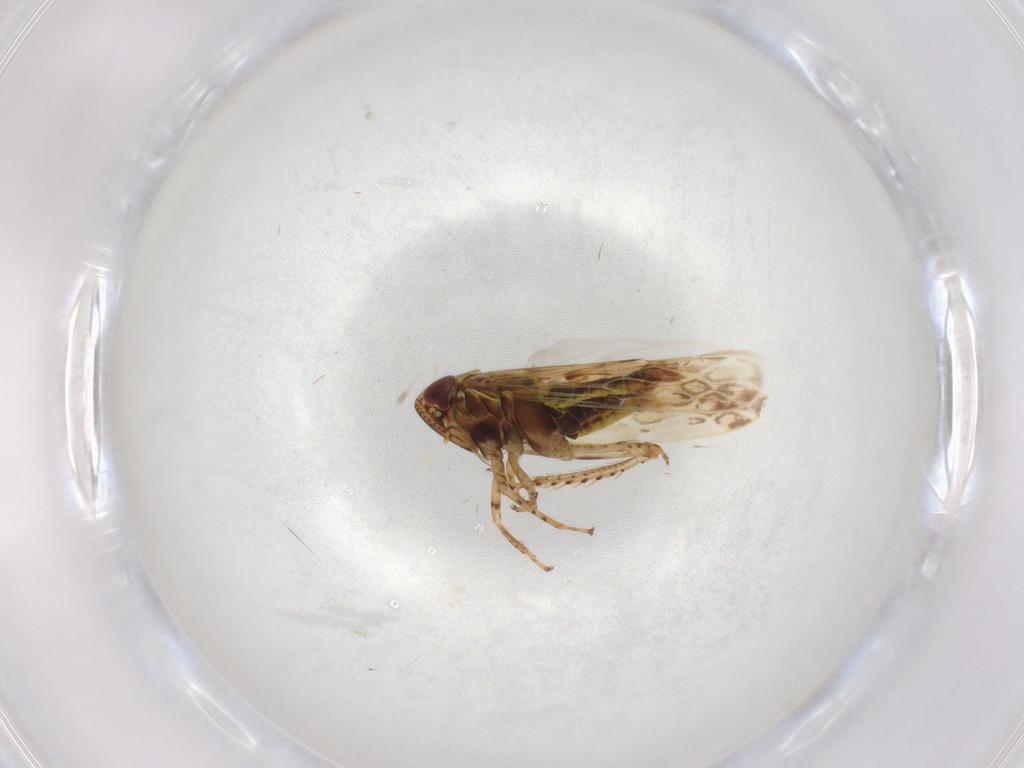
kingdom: Animalia
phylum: Arthropoda
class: Insecta
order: Hemiptera
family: Cicadellidae
